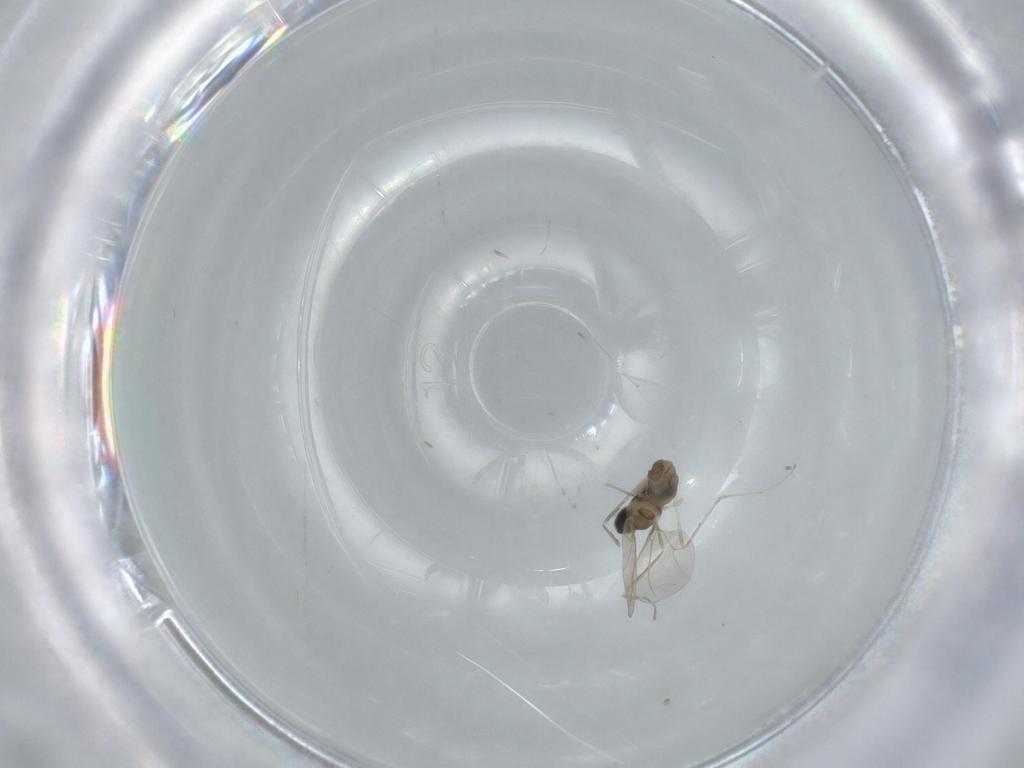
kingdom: Animalia
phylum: Arthropoda
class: Insecta
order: Diptera
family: Cecidomyiidae
